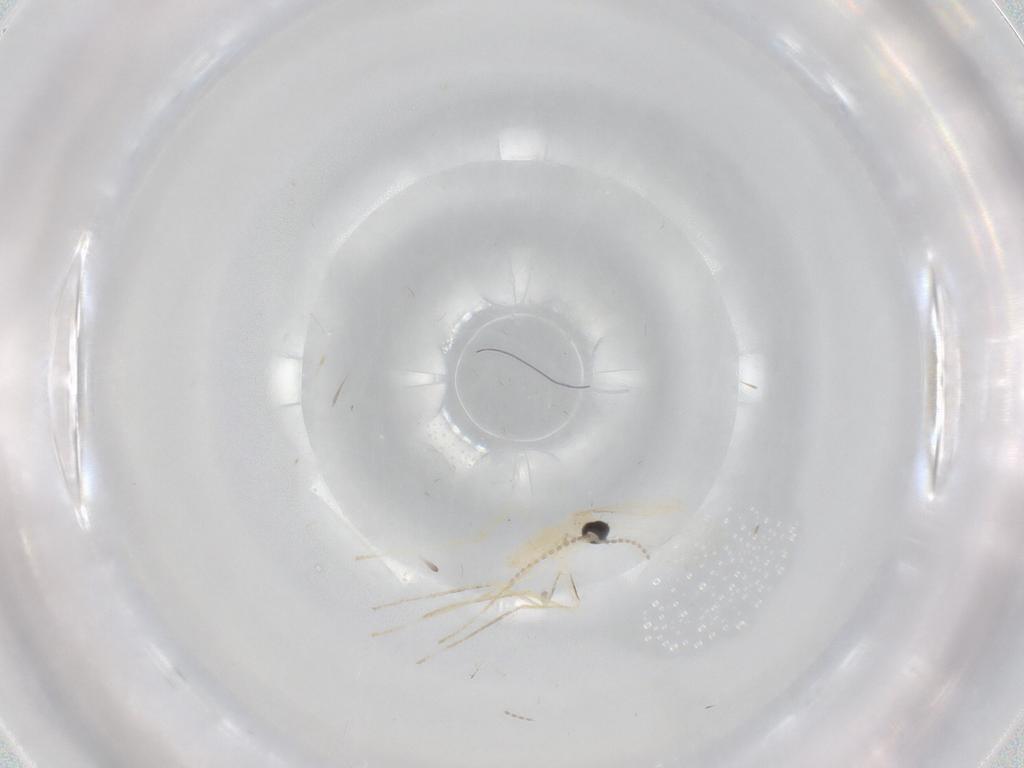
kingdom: Animalia
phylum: Arthropoda
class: Insecta
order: Diptera
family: Cecidomyiidae
